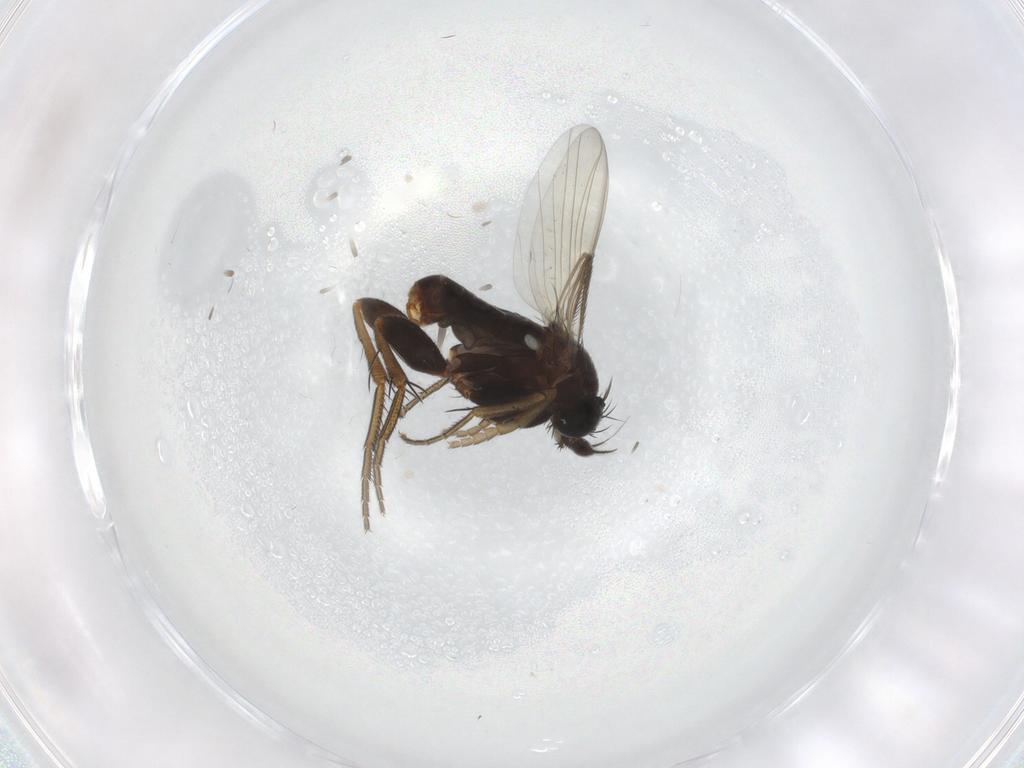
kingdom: Animalia
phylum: Arthropoda
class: Insecta
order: Diptera
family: Phoridae
